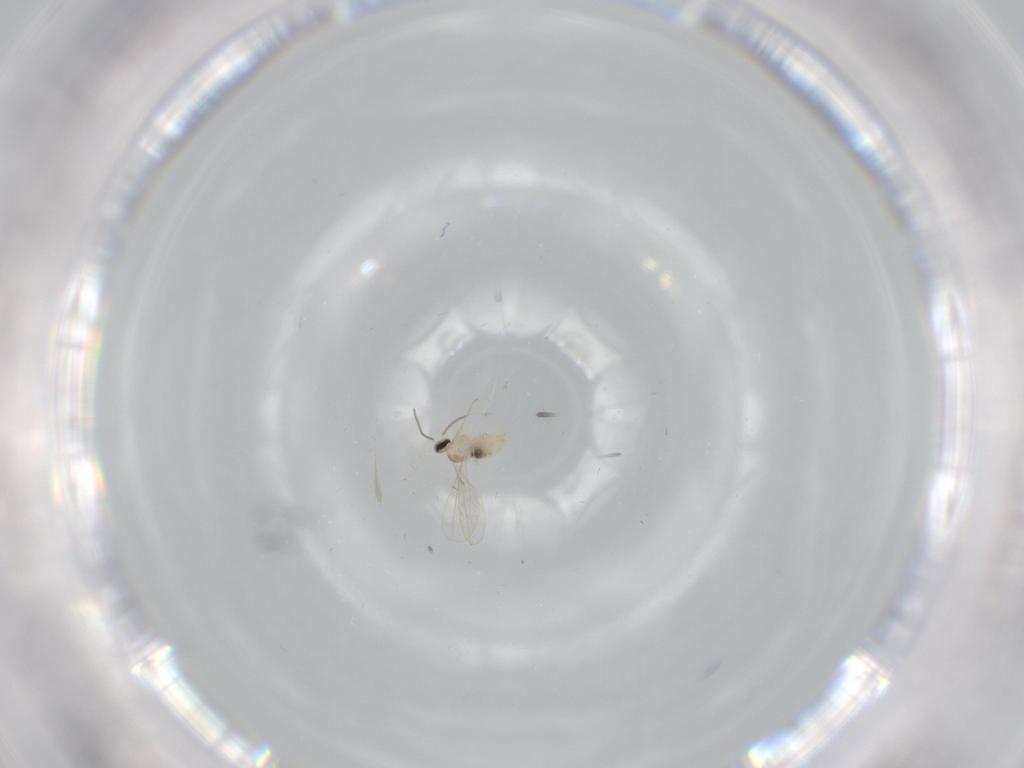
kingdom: Animalia
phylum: Arthropoda
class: Insecta
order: Diptera
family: Cecidomyiidae
